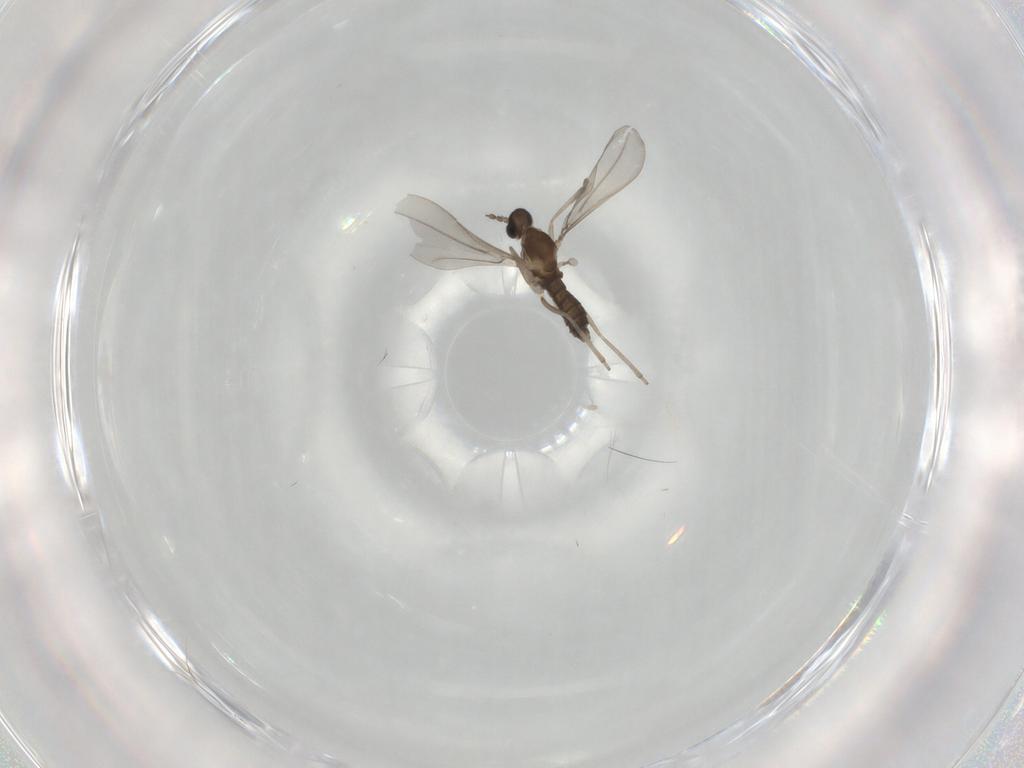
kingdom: Animalia
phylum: Arthropoda
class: Insecta
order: Diptera
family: Cecidomyiidae
